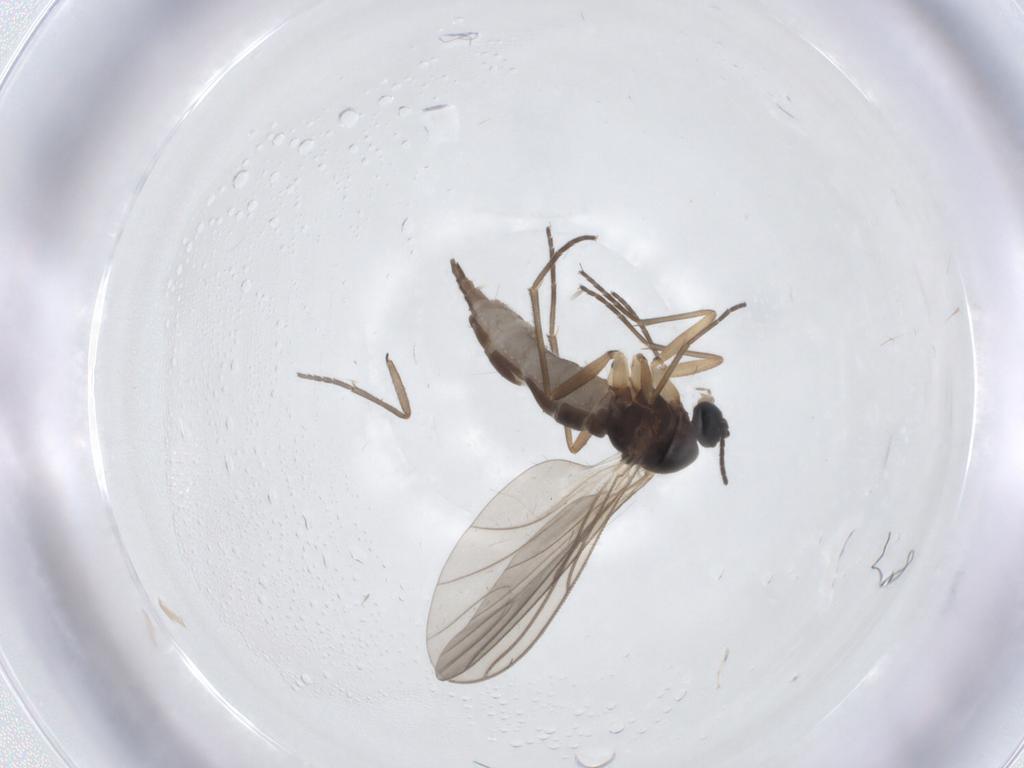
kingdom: Animalia
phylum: Arthropoda
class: Insecta
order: Diptera
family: Sciaridae
